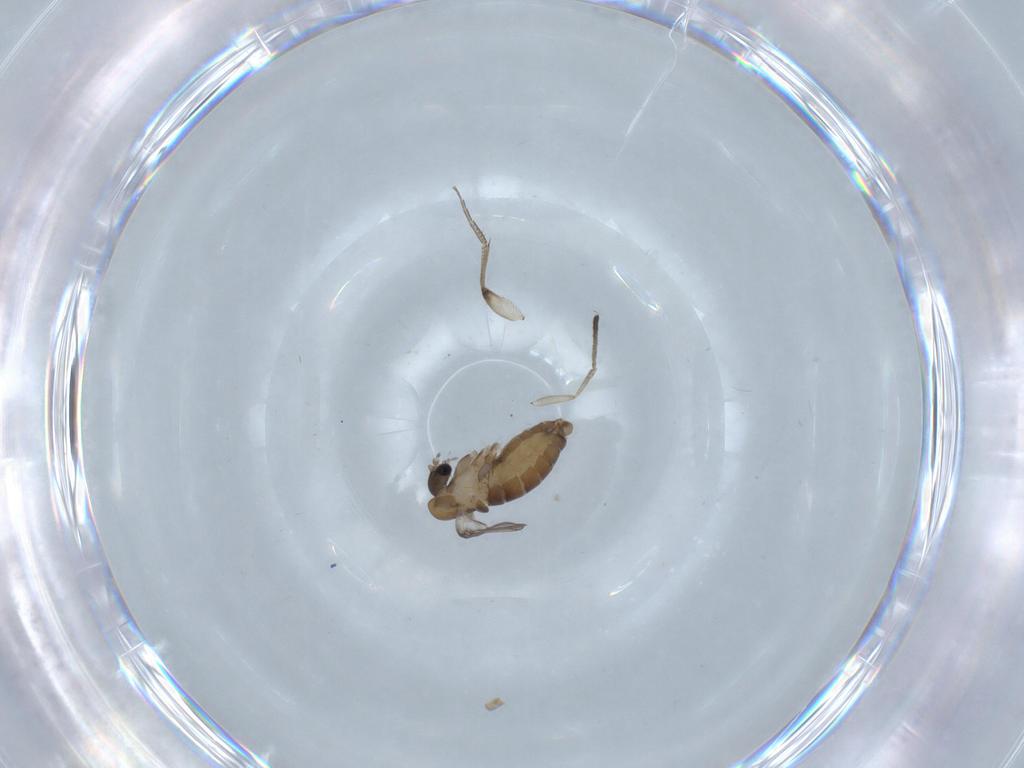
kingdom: Animalia
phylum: Arthropoda
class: Insecta
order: Diptera
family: Psychodidae
